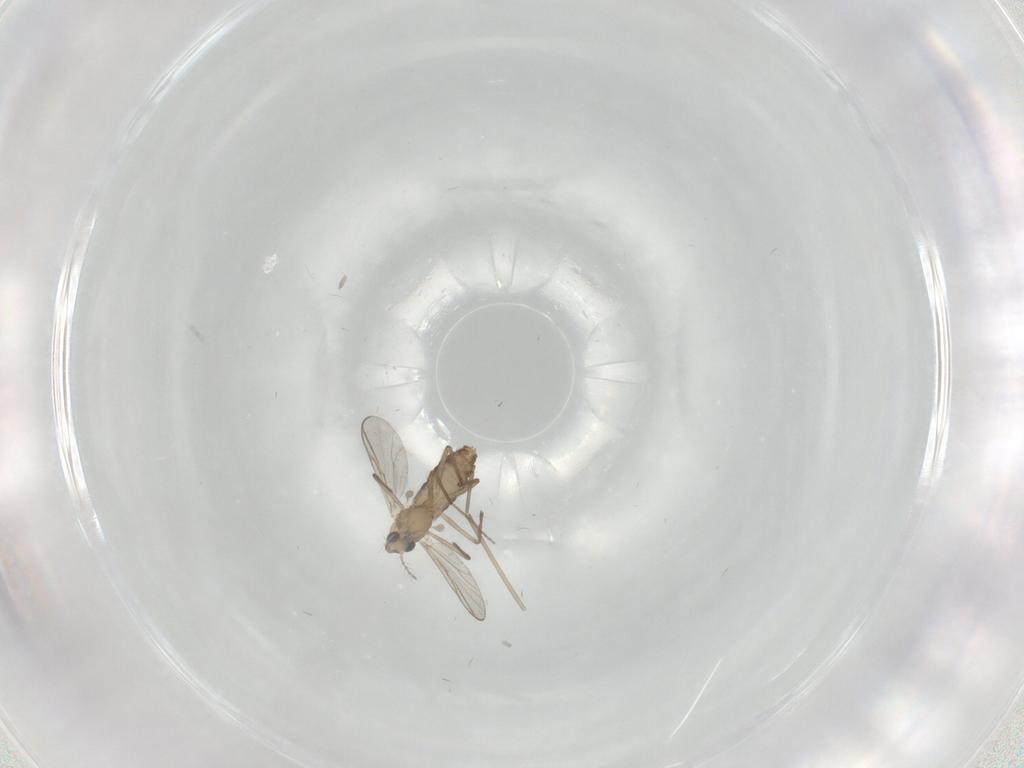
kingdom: Animalia
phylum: Arthropoda
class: Insecta
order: Diptera
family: Chironomidae
